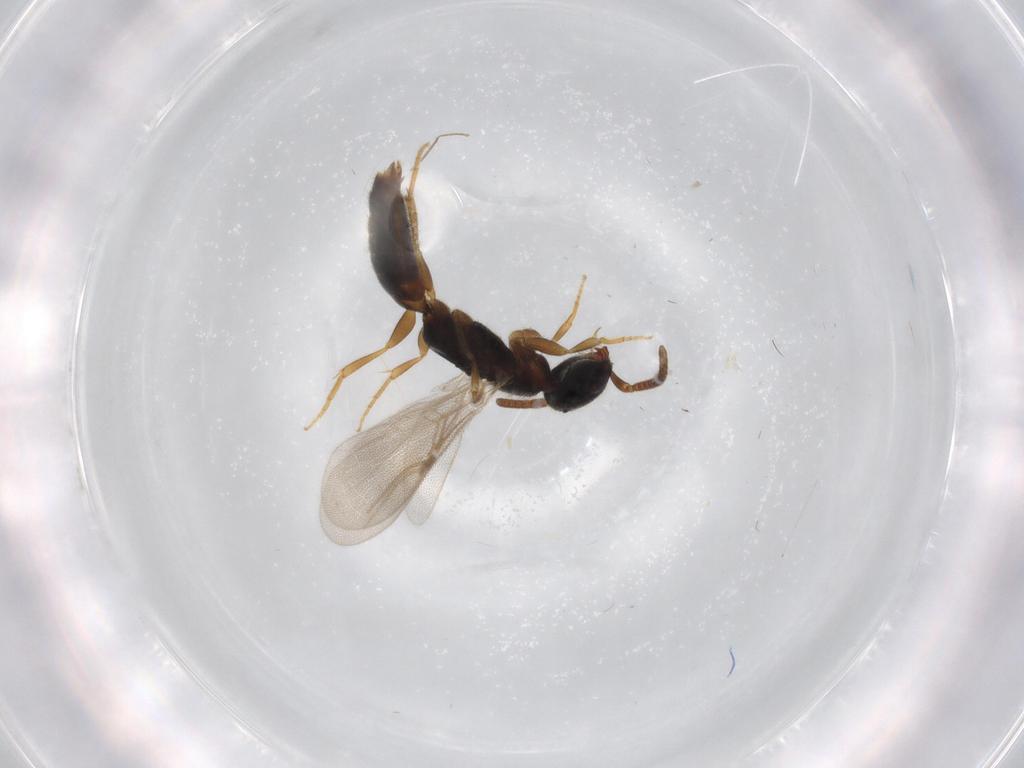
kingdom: Animalia
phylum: Arthropoda
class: Insecta
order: Hymenoptera
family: Bethylidae
